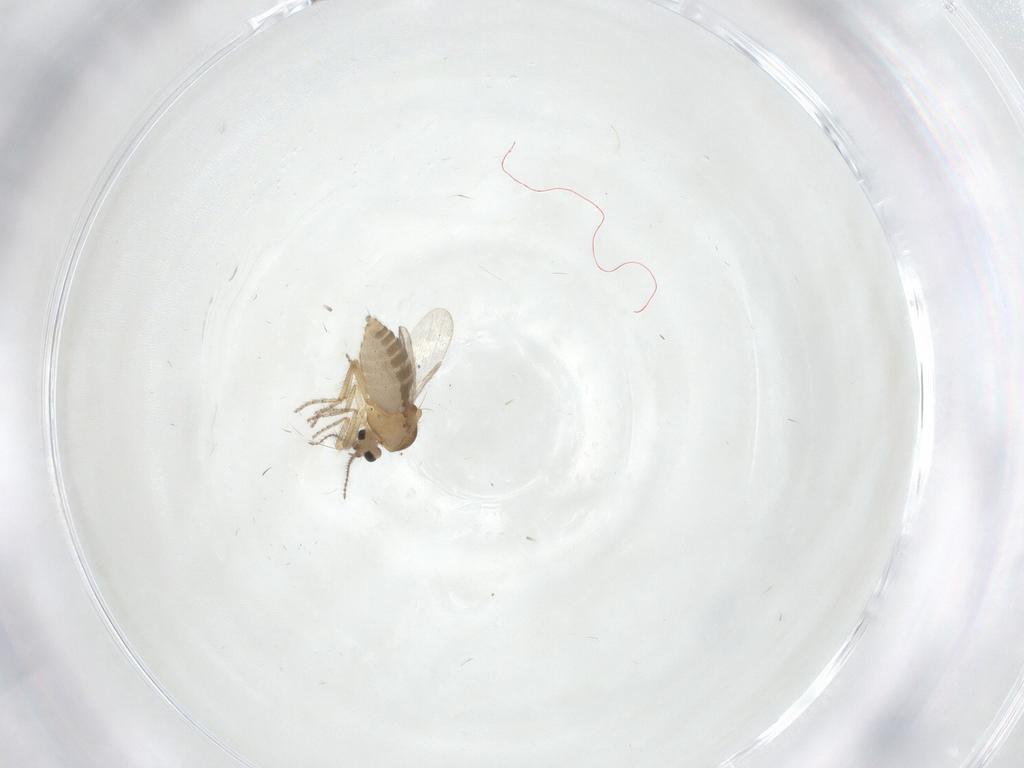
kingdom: Animalia
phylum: Arthropoda
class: Insecta
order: Diptera
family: Ceratopogonidae
